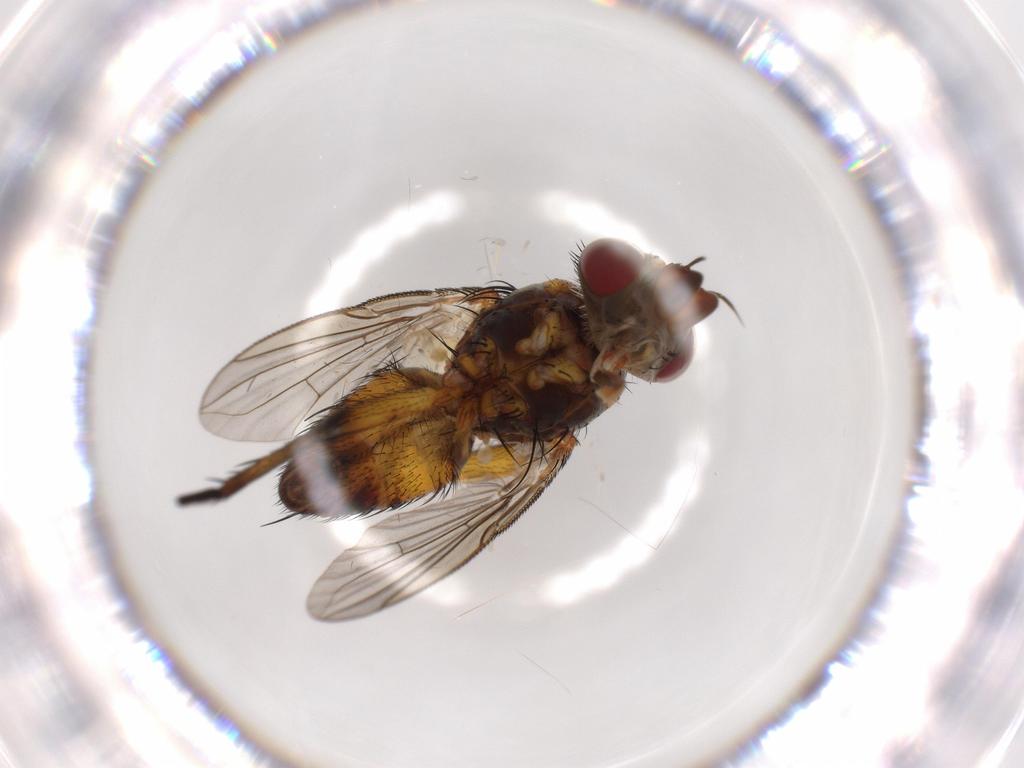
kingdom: Animalia
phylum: Arthropoda
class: Insecta
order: Diptera
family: Tachinidae
